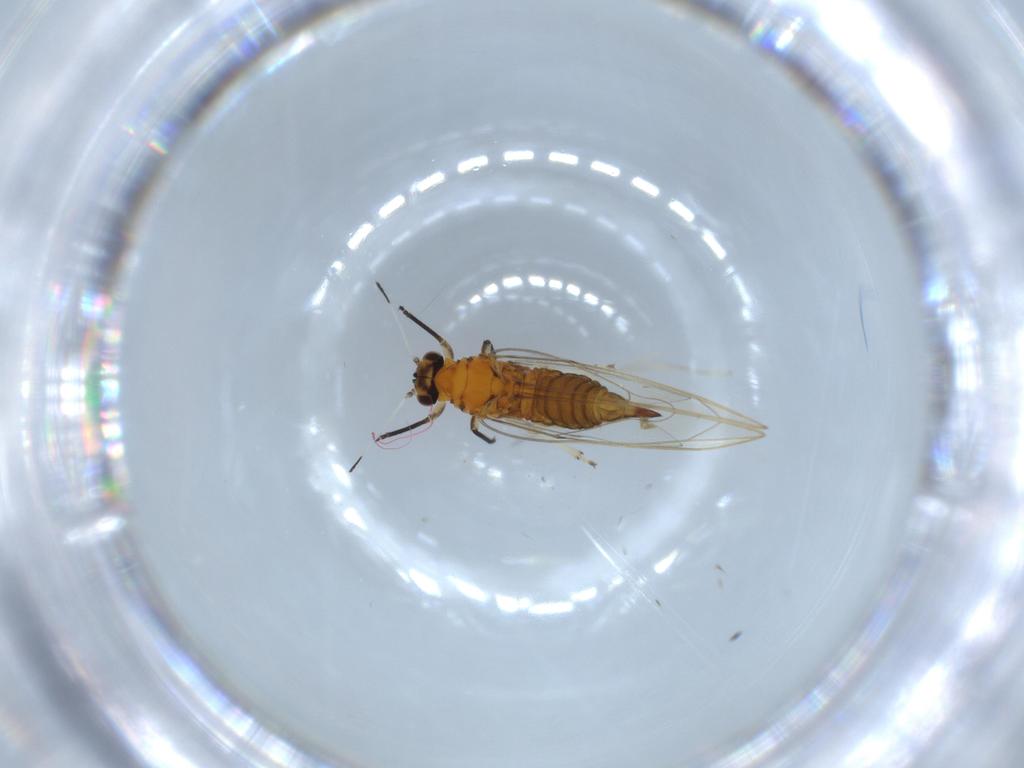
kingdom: Animalia
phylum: Arthropoda
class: Insecta
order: Hemiptera
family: Triozidae
